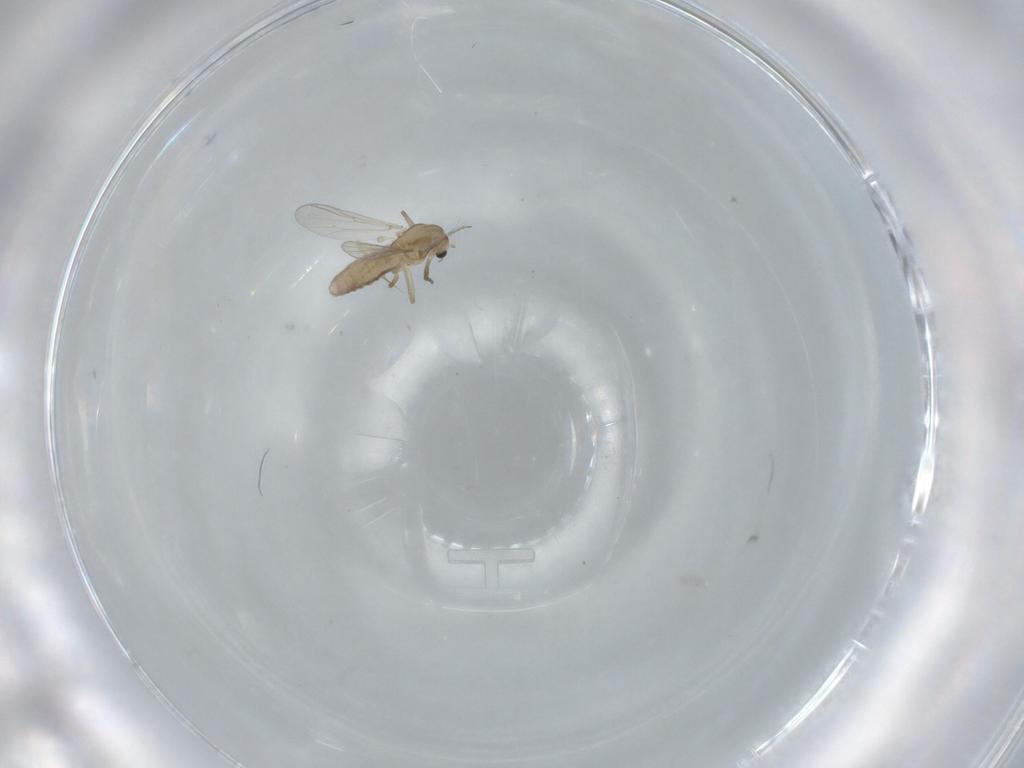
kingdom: Animalia
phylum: Arthropoda
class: Insecta
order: Diptera
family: Chironomidae
